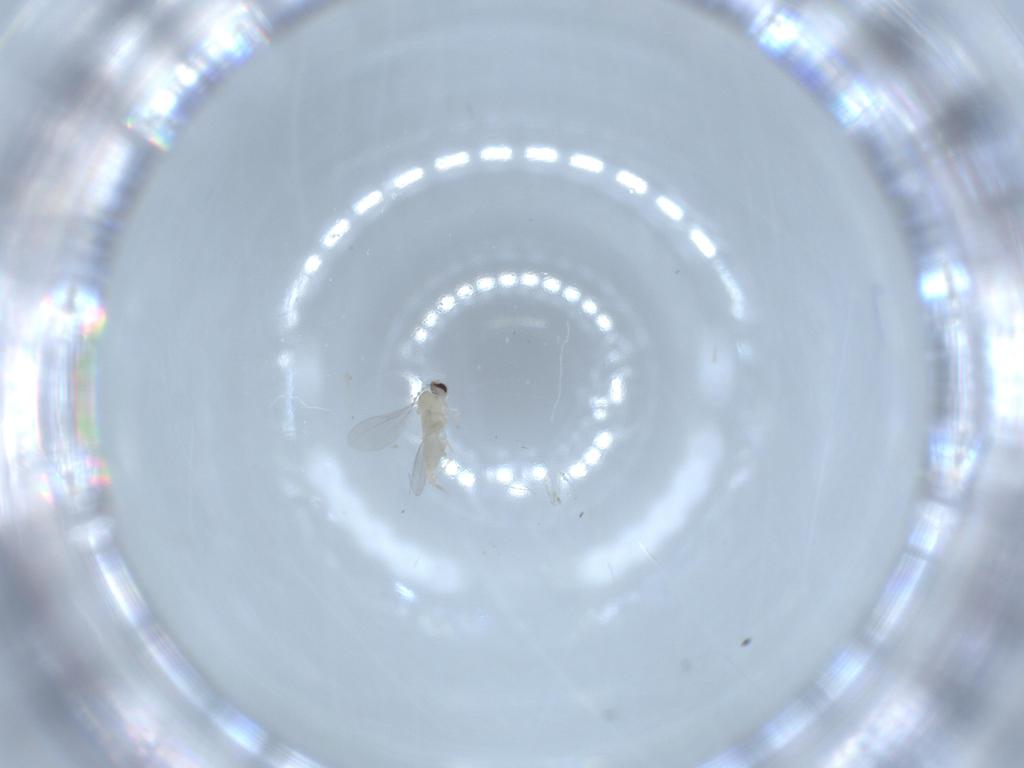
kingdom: Animalia
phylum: Arthropoda
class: Insecta
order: Diptera
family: Cecidomyiidae
